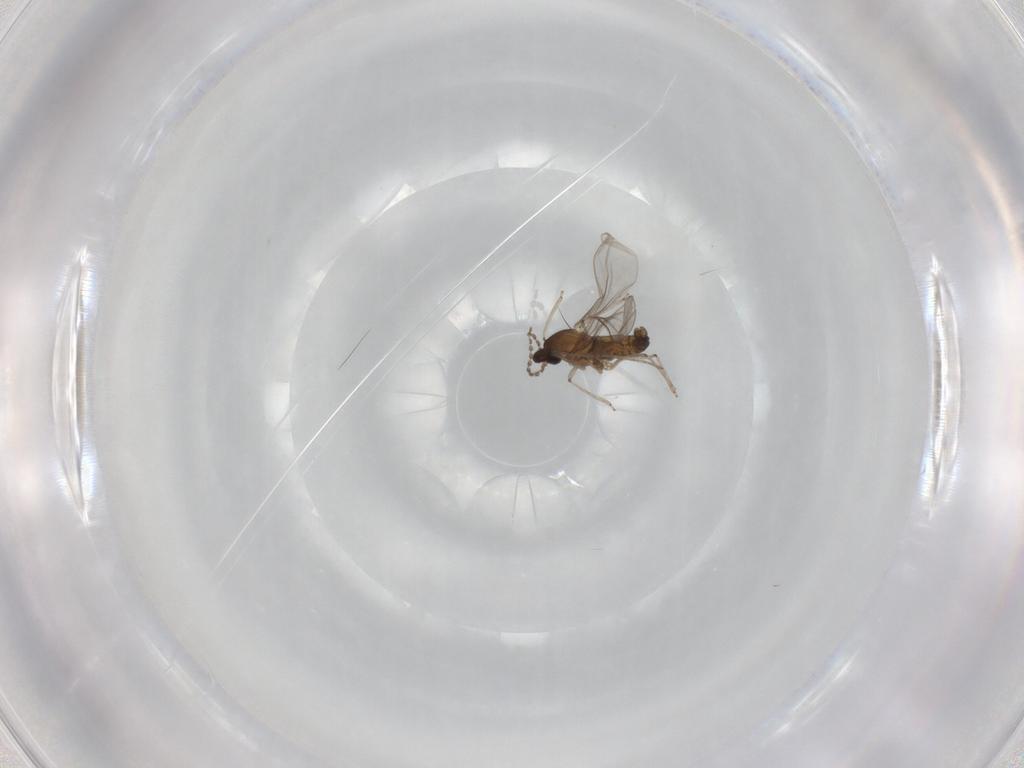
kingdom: Animalia
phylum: Arthropoda
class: Insecta
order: Diptera
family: Cecidomyiidae
